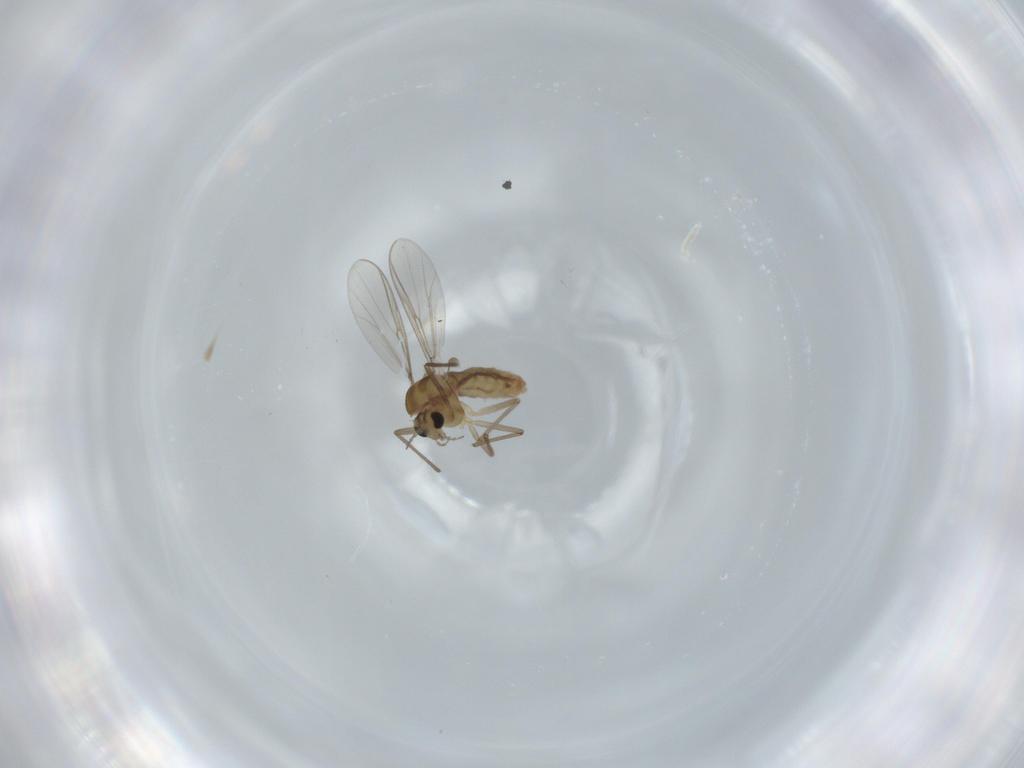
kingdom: Animalia
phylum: Arthropoda
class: Insecta
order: Diptera
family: Chironomidae
